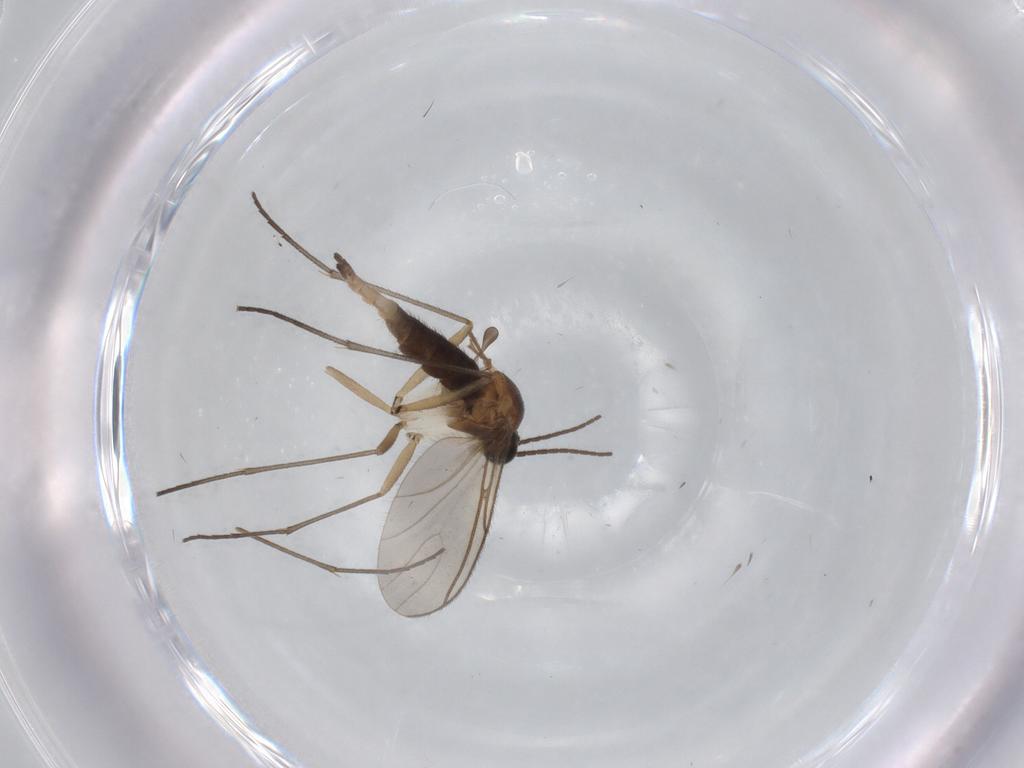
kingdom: Animalia
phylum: Arthropoda
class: Insecta
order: Diptera
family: Sciaridae
